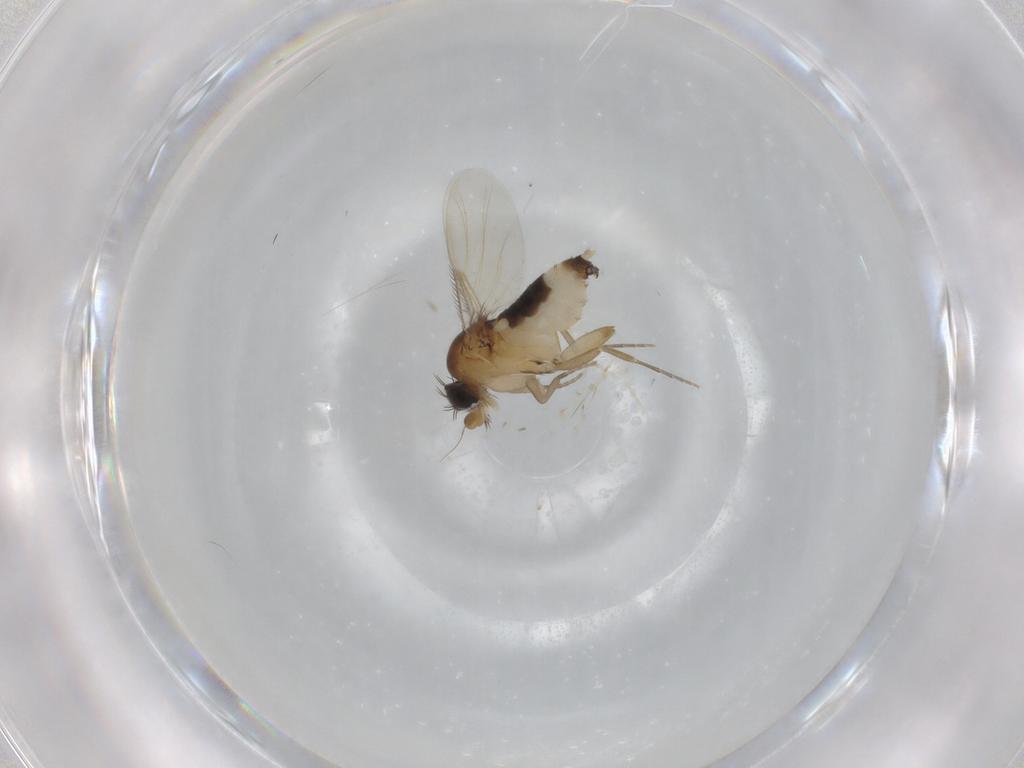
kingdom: Animalia
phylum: Arthropoda
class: Insecta
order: Diptera
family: Phoridae
